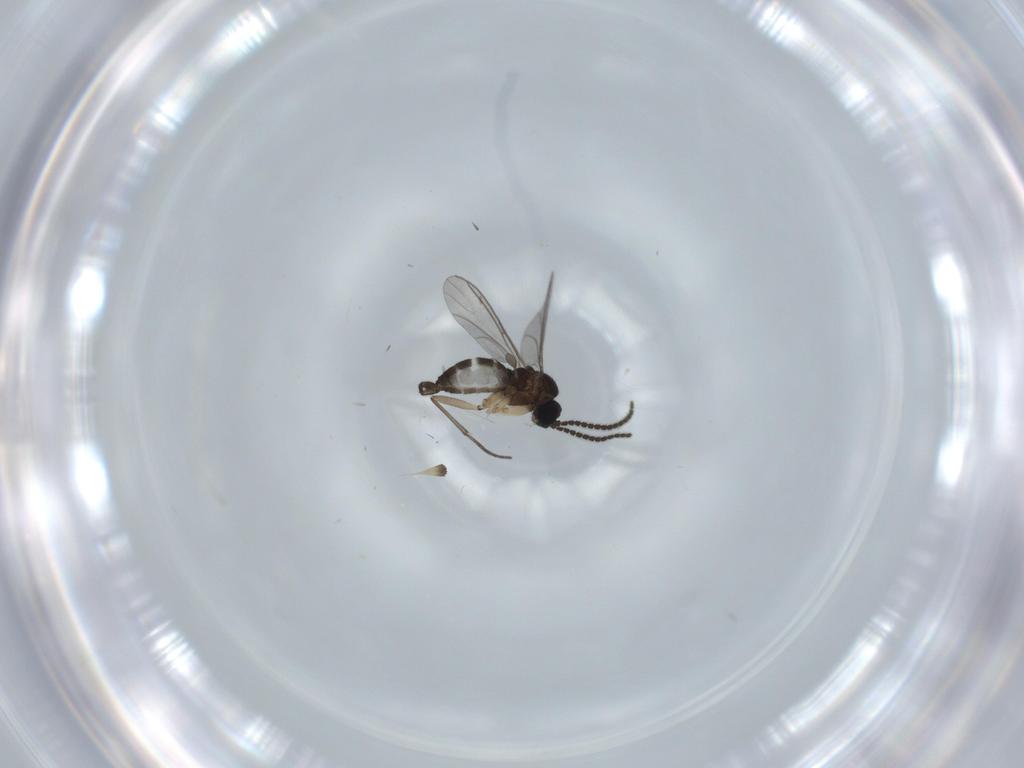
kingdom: Animalia
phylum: Arthropoda
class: Insecta
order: Diptera
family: Sciaridae
